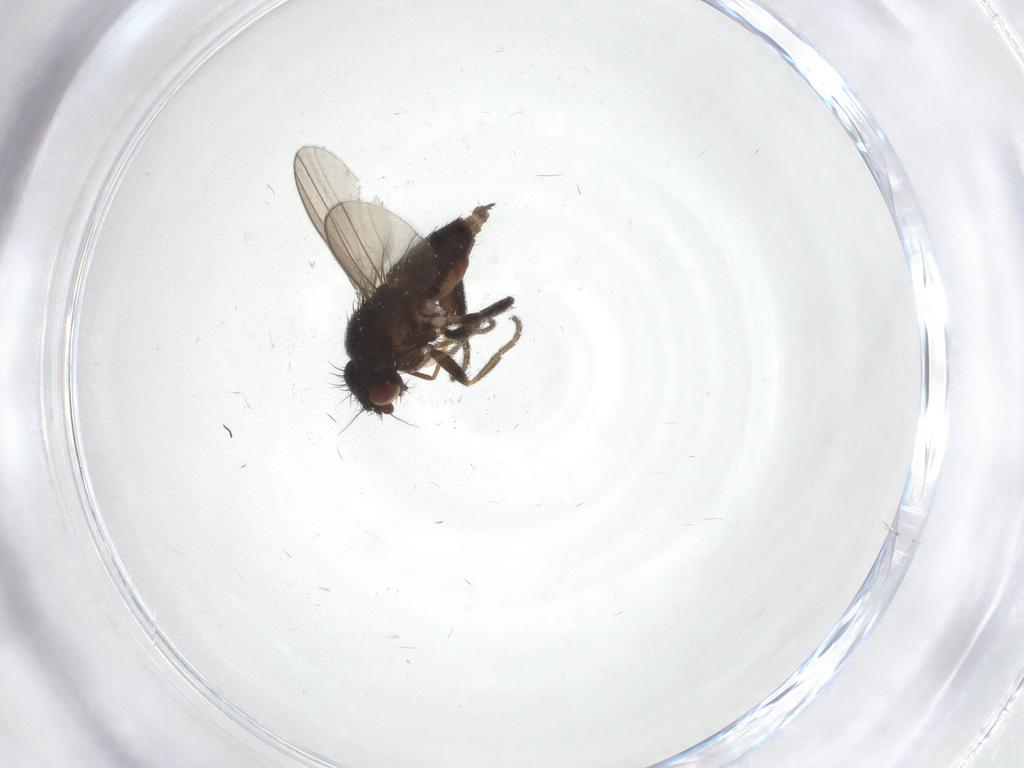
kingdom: Animalia
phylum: Arthropoda
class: Insecta
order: Diptera
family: Milichiidae
